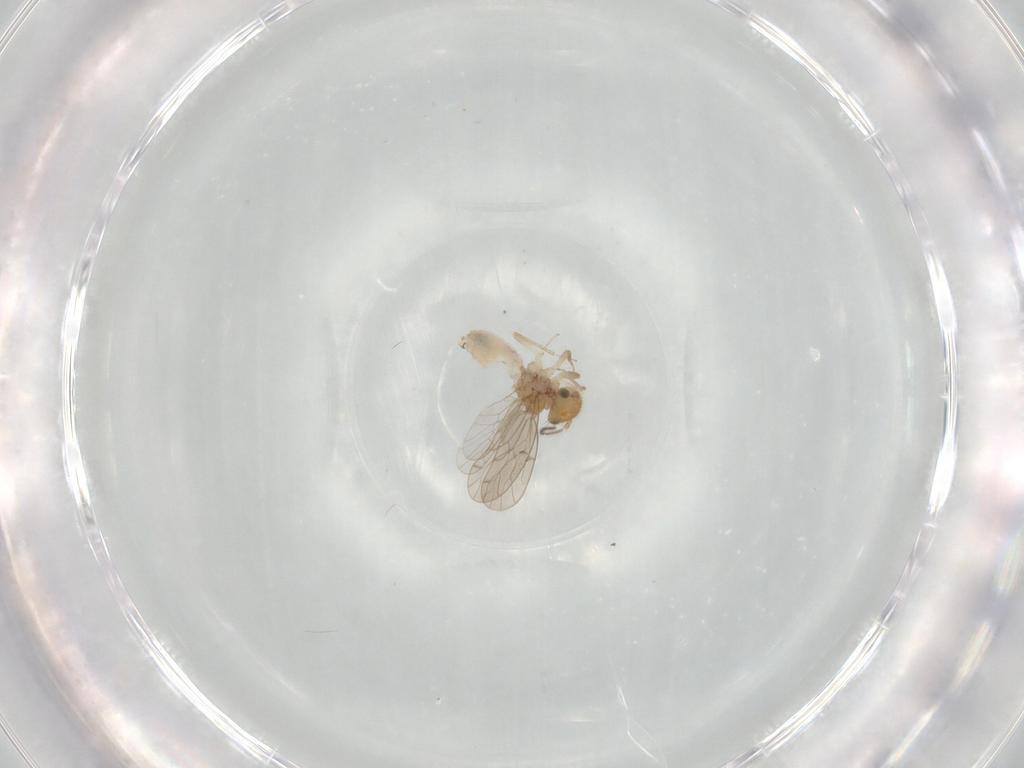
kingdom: Animalia
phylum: Arthropoda
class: Insecta
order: Psocodea
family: Ectopsocidae
